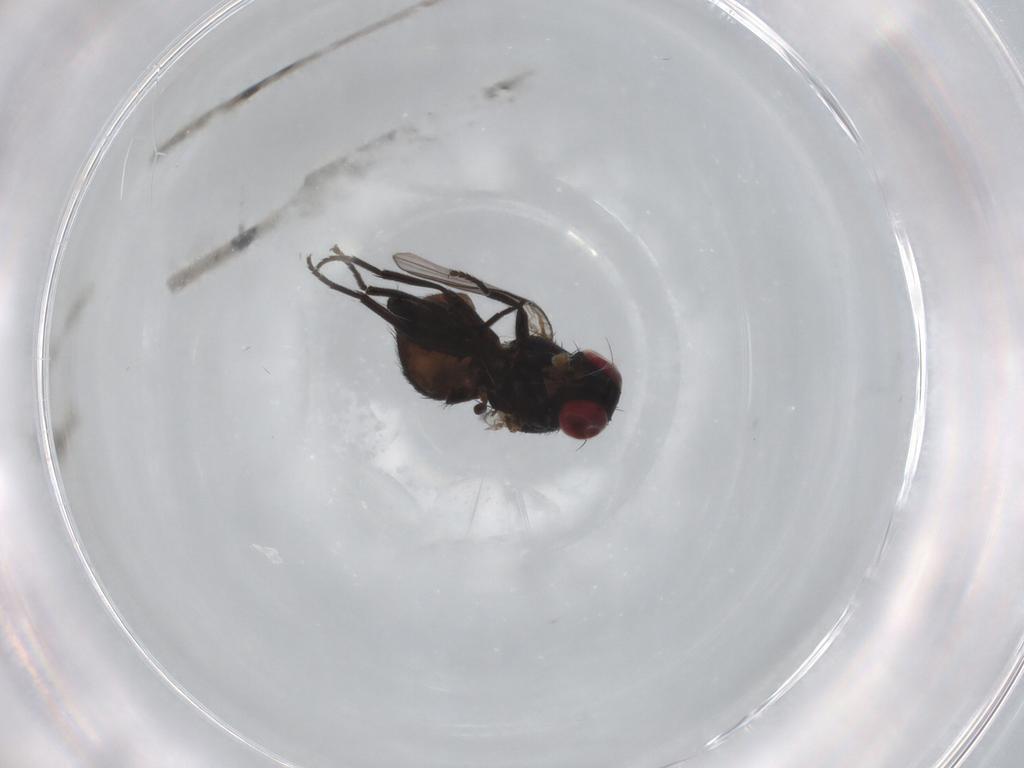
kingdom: Animalia
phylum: Arthropoda
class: Insecta
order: Diptera
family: Agromyzidae
